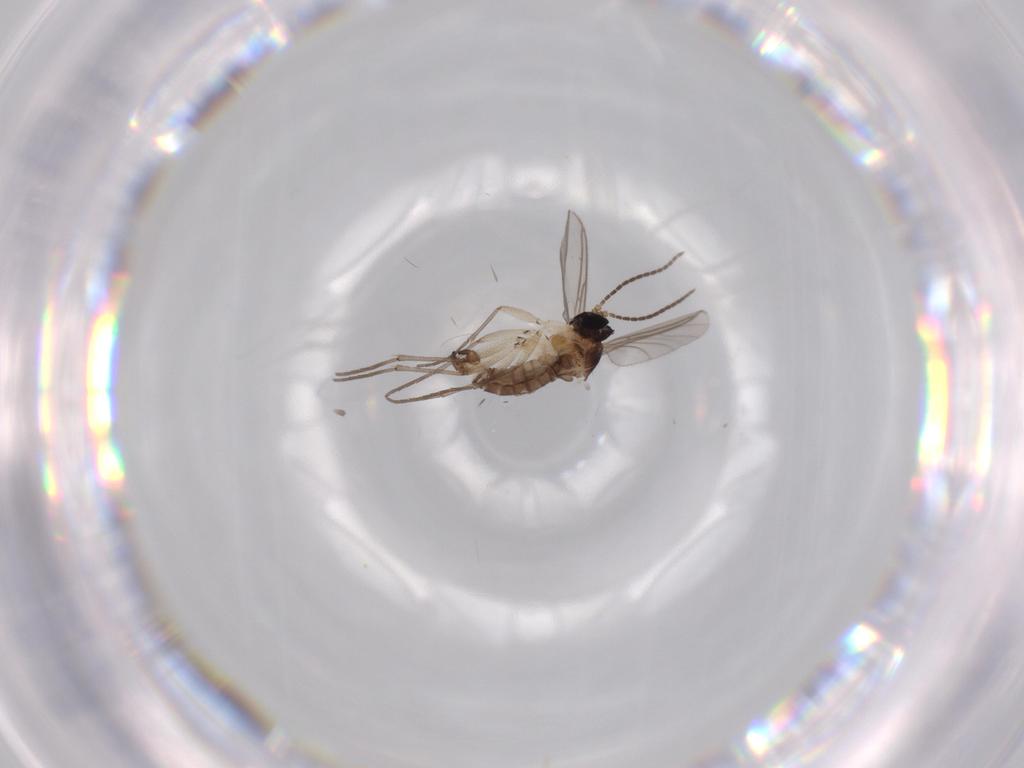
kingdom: Animalia
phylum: Arthropoda
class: Insecta
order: Diptera
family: Sciaridae
